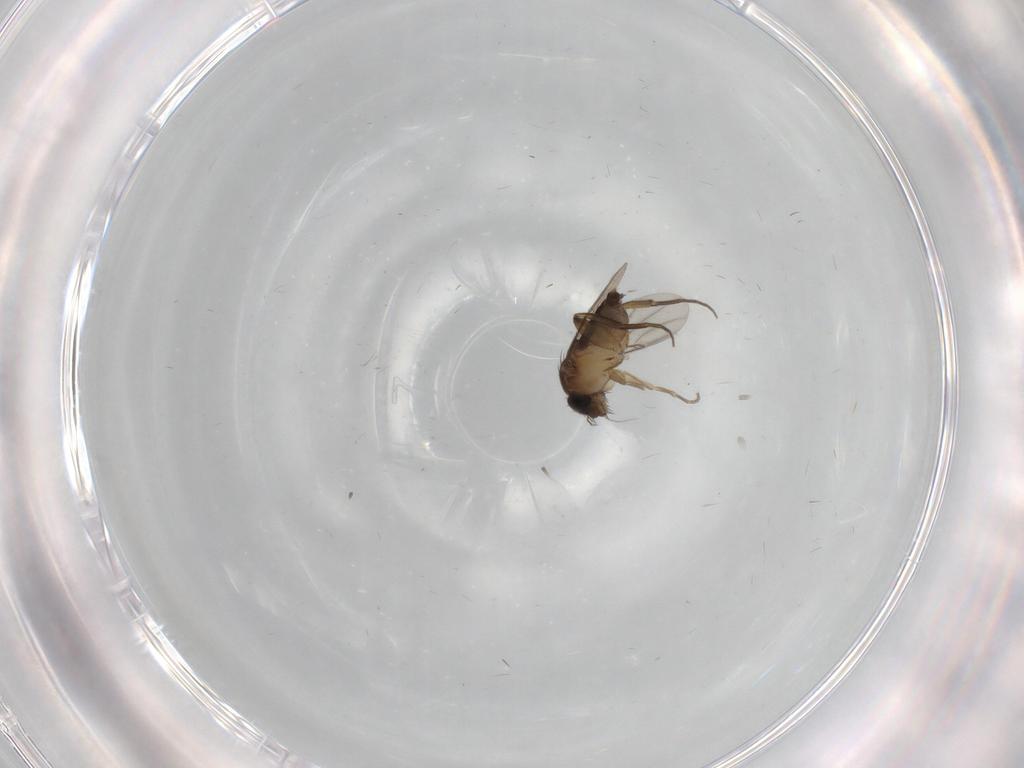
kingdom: Animalia
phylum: Arthropoda
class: Insecta
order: Diptera
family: Phoridae
